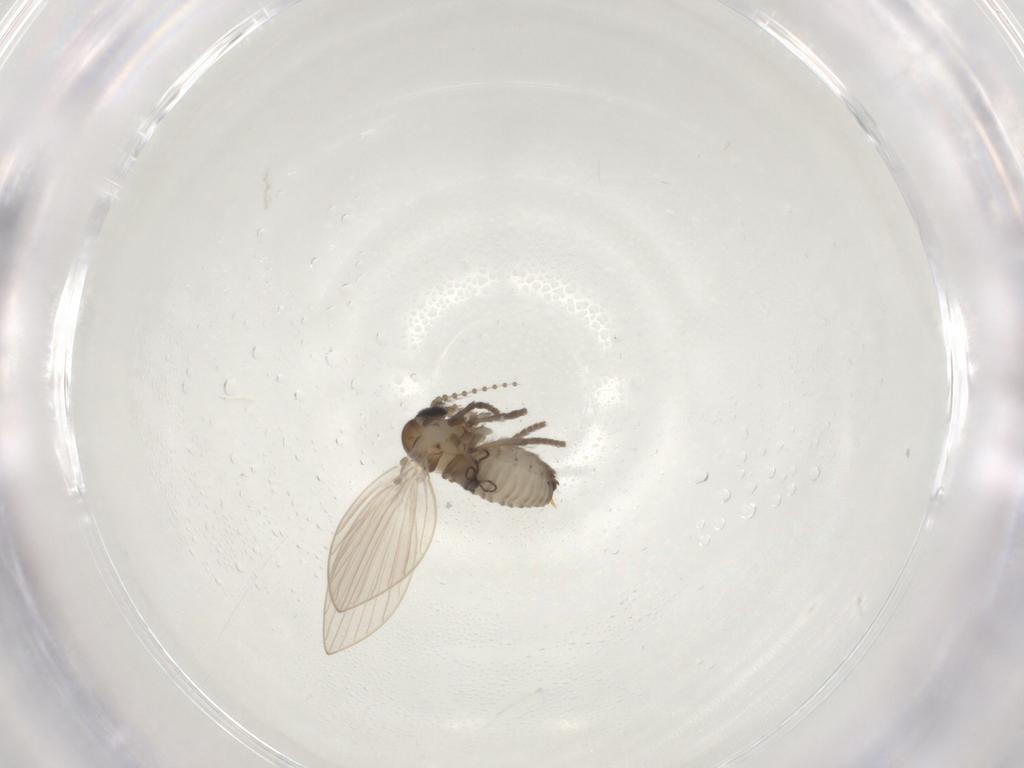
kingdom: Animalia
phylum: Arthropoda
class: Insecta
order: Diptera
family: Psychodidae
